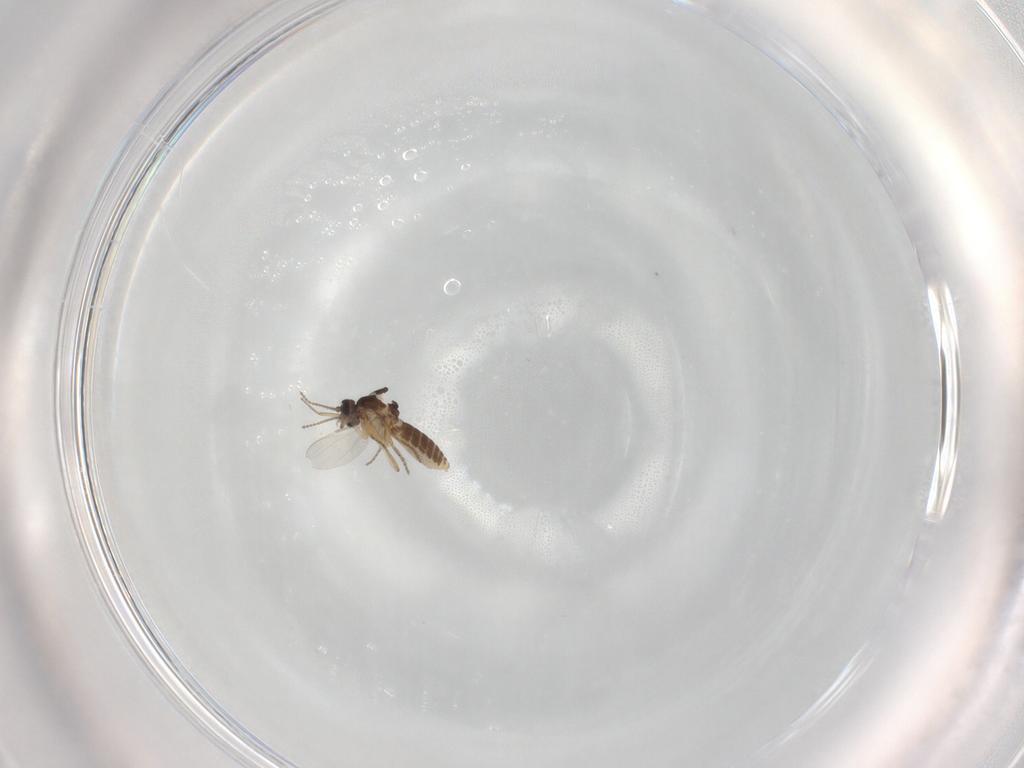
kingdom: Animalia
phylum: Arthropoda
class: Insecta
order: Diptera
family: Ceratopogonidae
